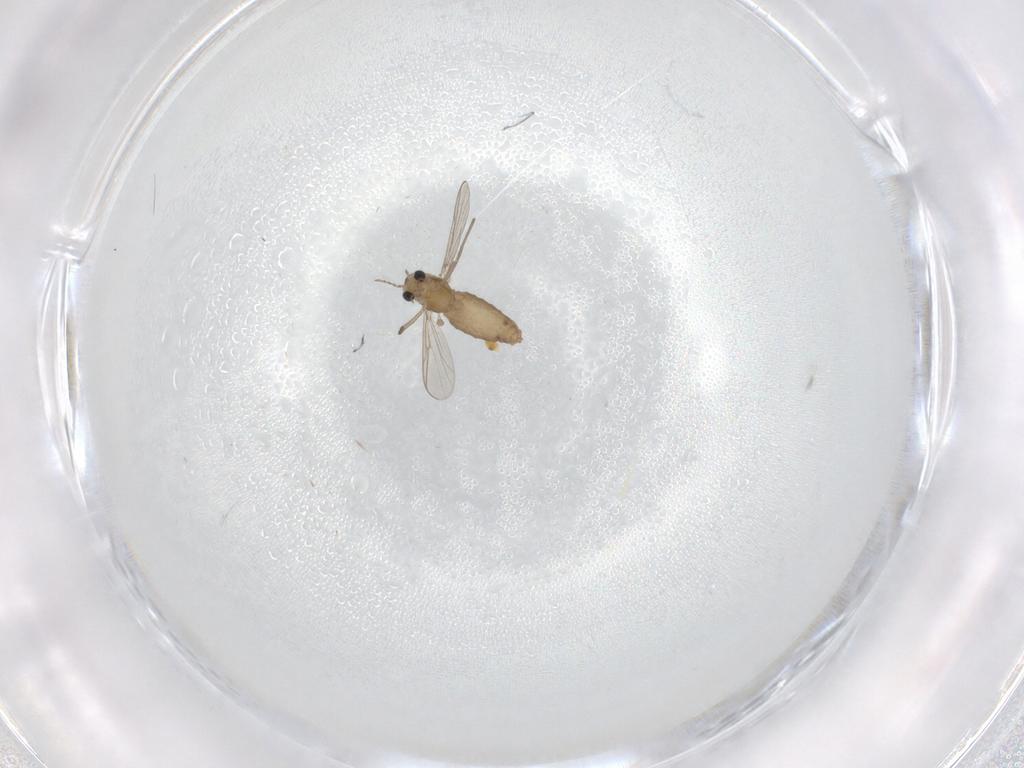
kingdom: Animalia
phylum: Arthropoda
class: Insecta
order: Diptera
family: Chironomidae
